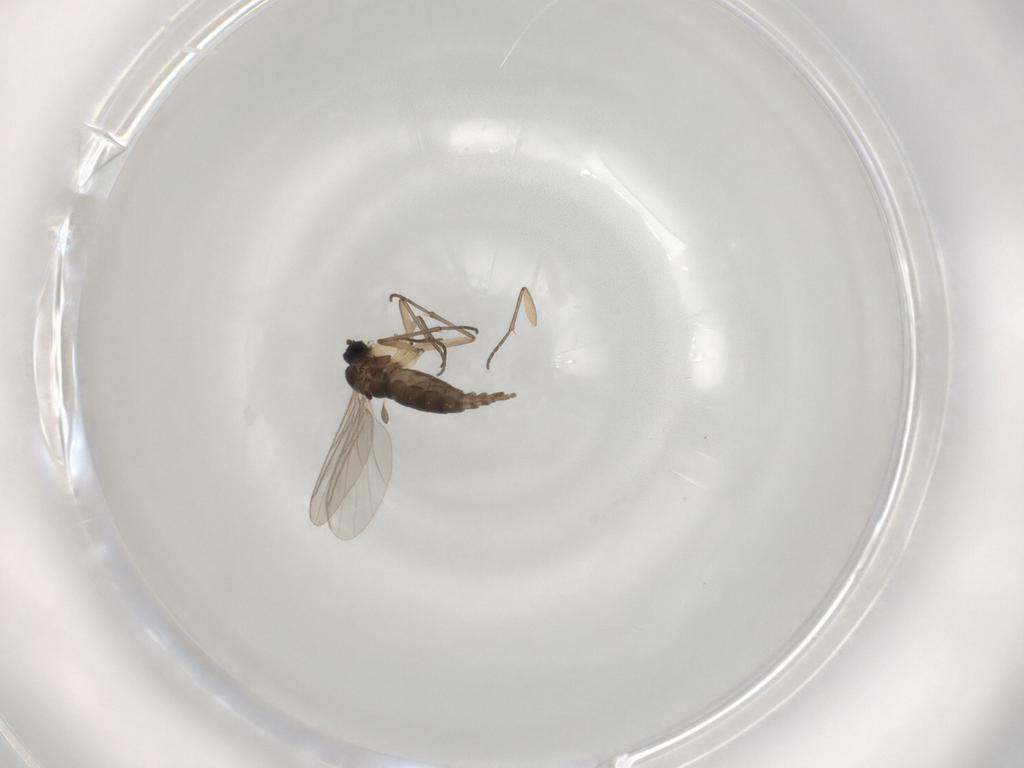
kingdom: Animalia
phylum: Arthropoda
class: Insecta
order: Diptera
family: Sciaridae
